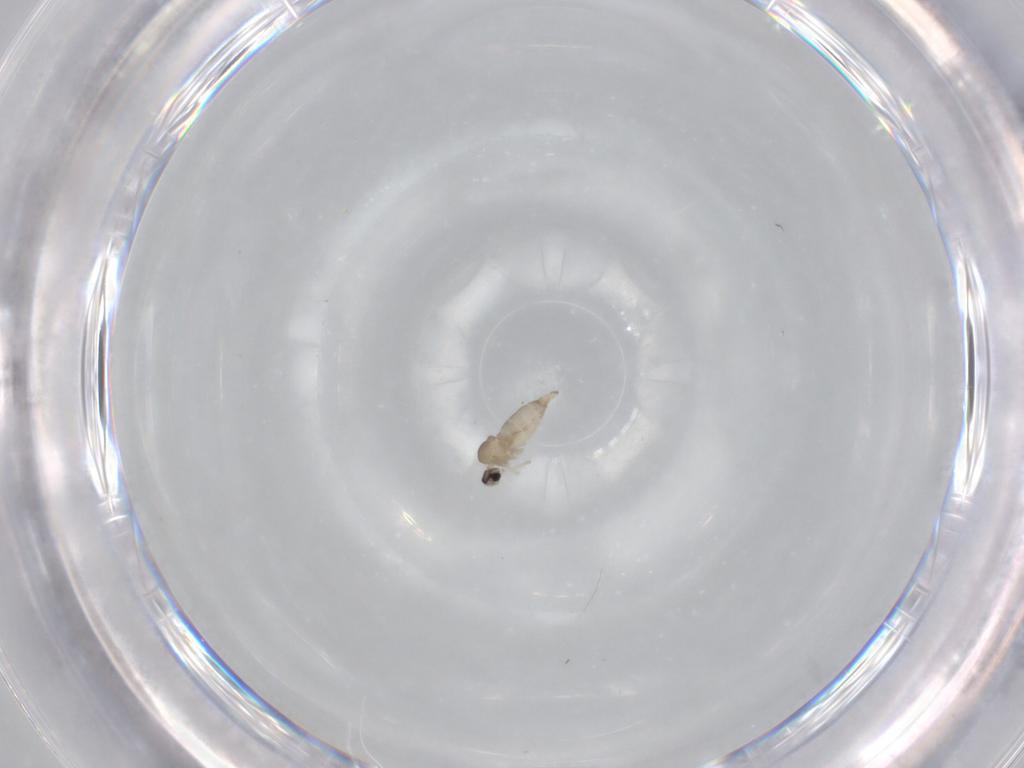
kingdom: Animalia
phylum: Arthropoda
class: Insecta
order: Diptera
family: Cecidomyiidae
